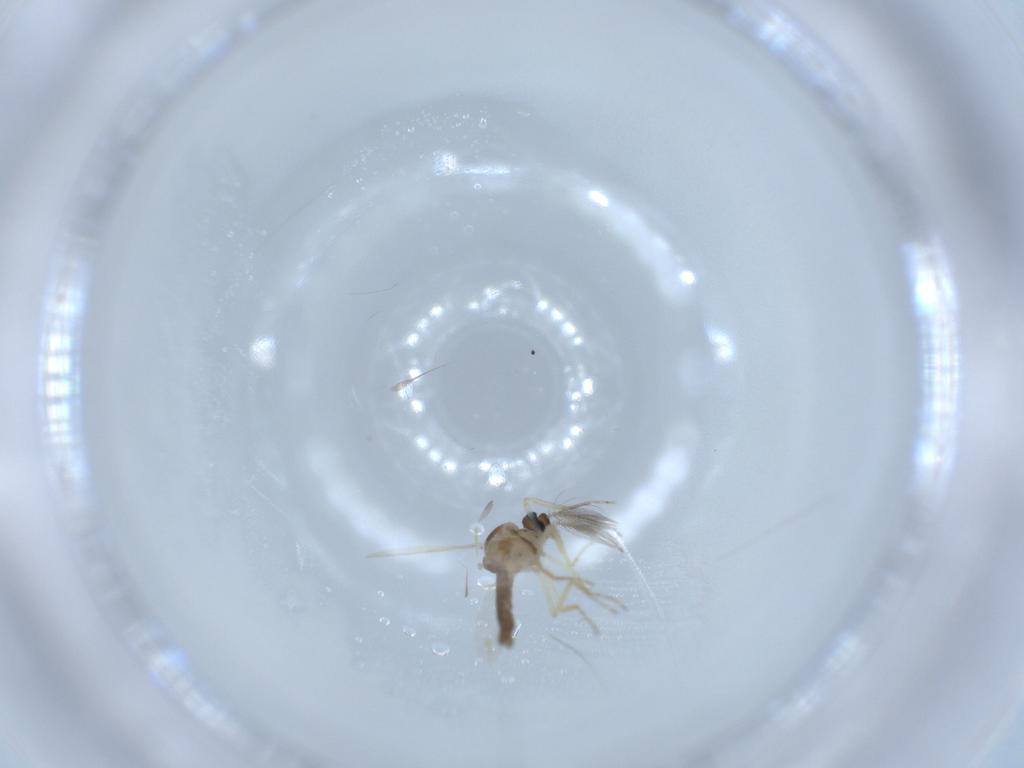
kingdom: Animalia
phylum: Arthropoda
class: Insecta
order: Diptera
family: Ceratopogonidae
